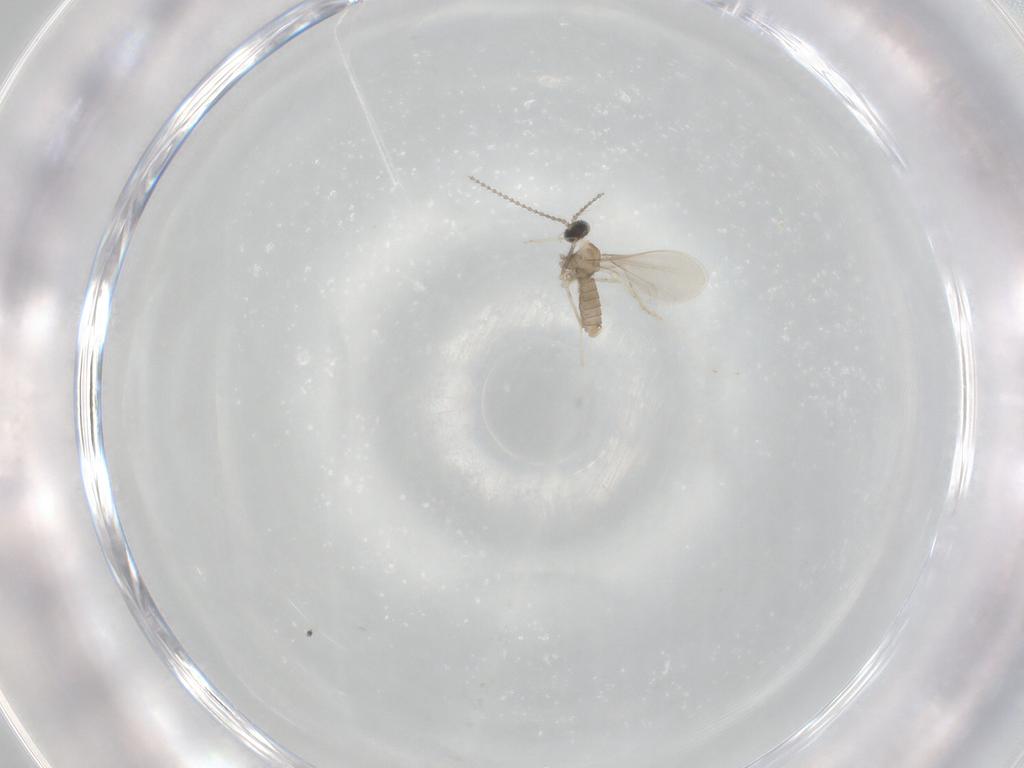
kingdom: Animalia
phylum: Arthropoda
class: Insecta
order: Diptera
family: Cecidomyiidae
